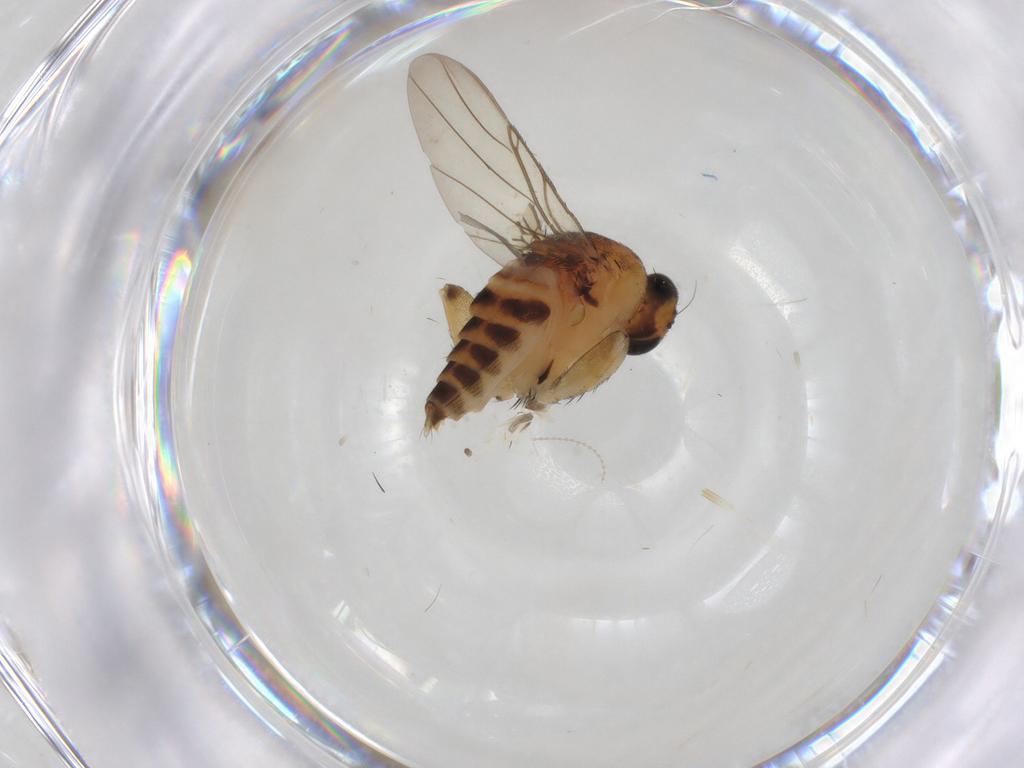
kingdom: Animalia
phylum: Arthropoda
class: Insecta
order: Diptera
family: Phoridae
